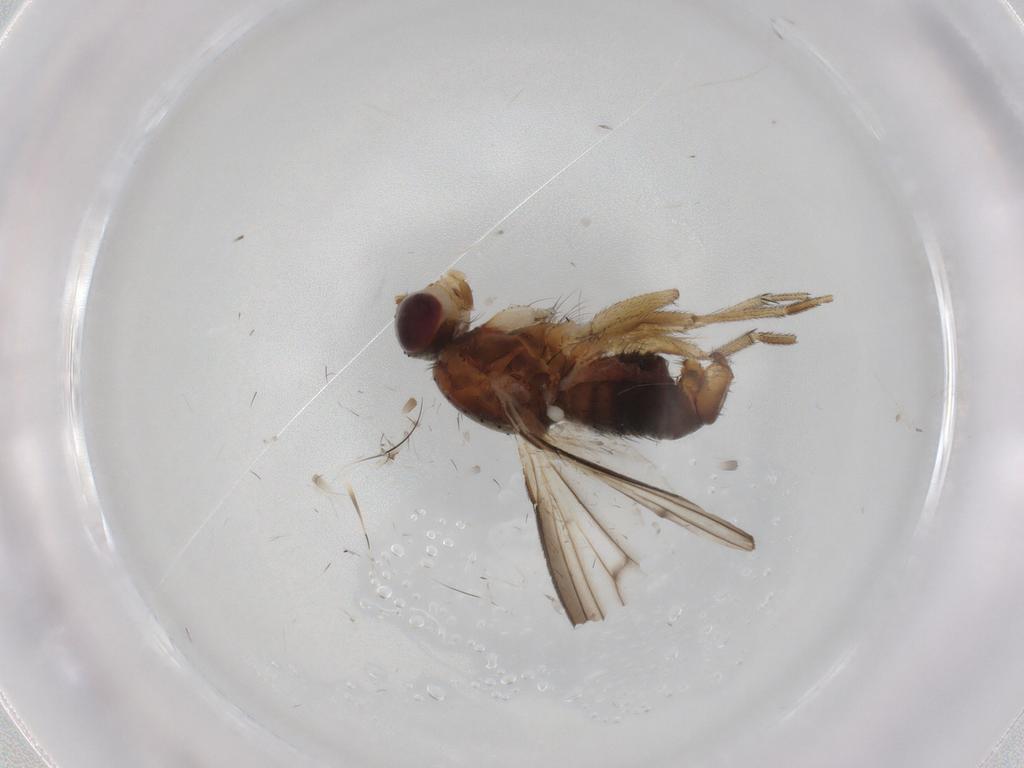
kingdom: Animalia
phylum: Arthropoda
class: Insecta
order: Diptera
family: Heleomyzidae
